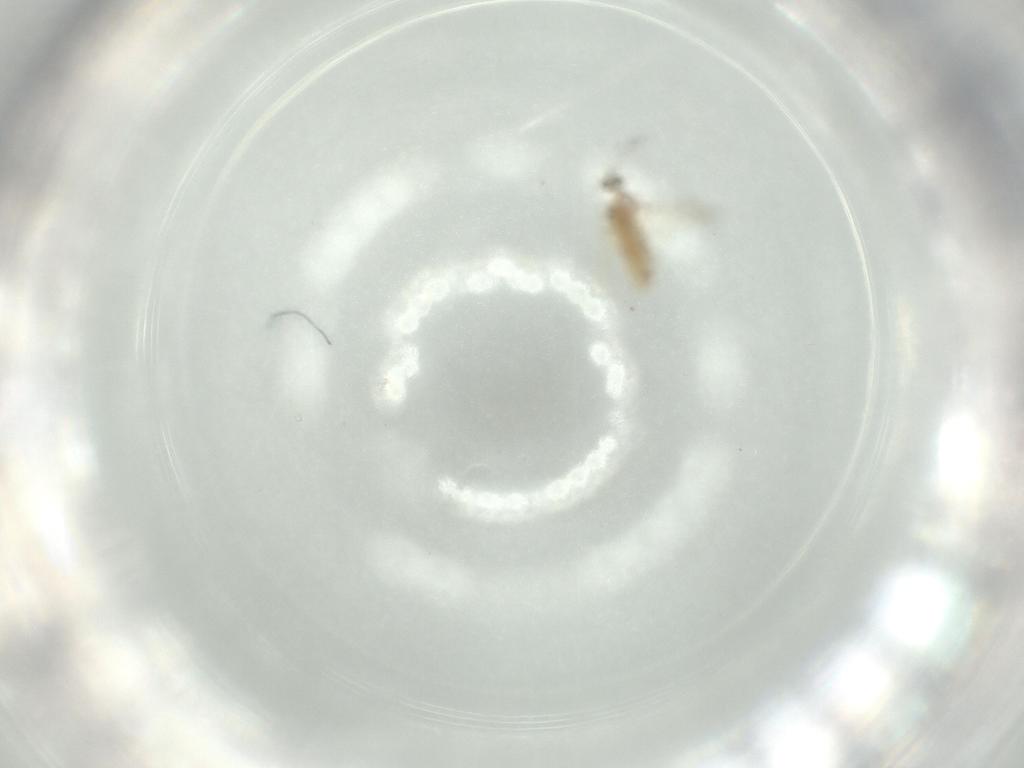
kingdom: Animalia
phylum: Arthropoda
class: Insecta
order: Diptera
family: Cecidomyiidae
